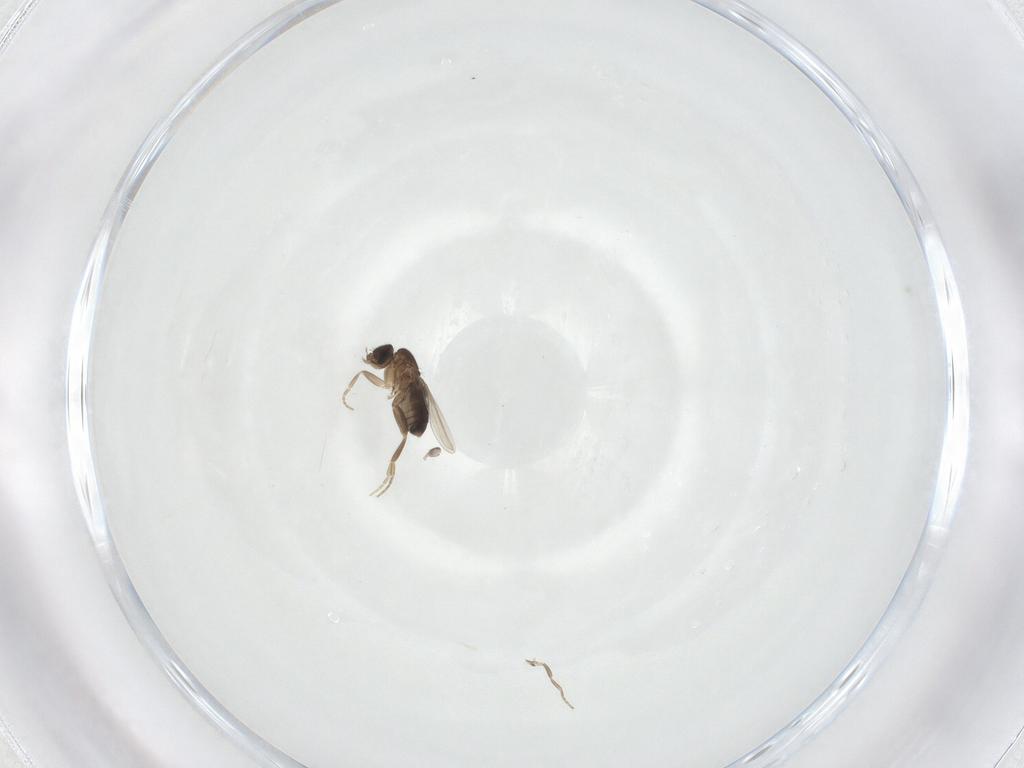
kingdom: Animalia
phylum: Arthropoda
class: Insecta
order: Diptera
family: Phoridae
